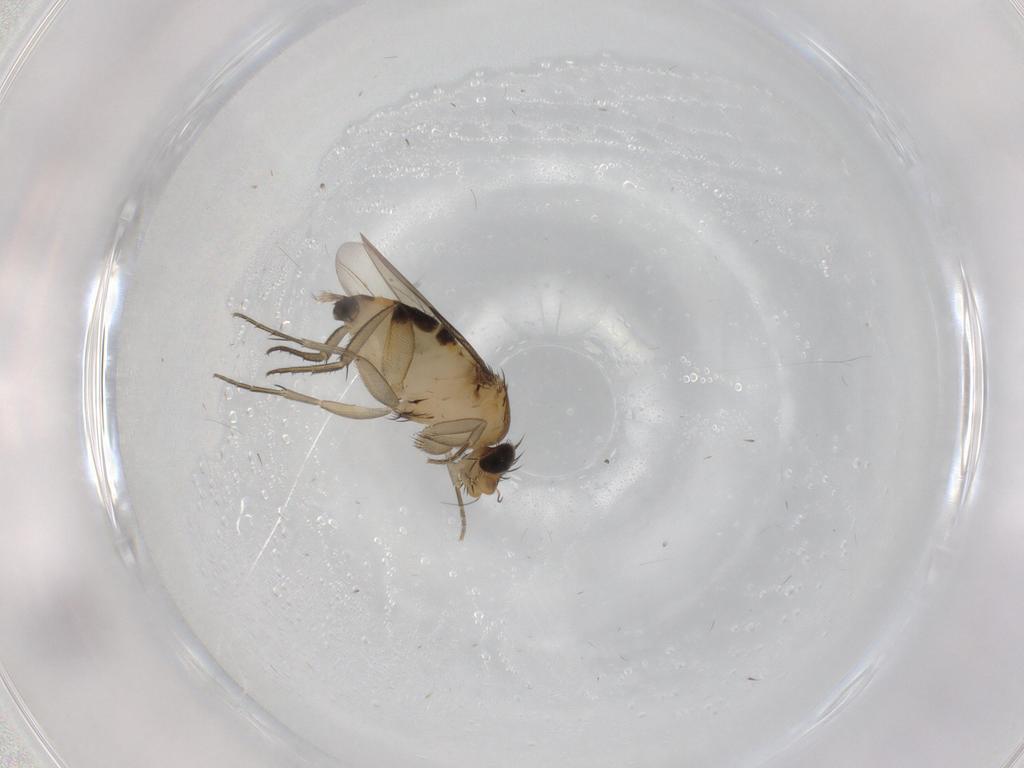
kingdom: Animalia
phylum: Arthropoda
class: Insecta
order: Diptera
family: Phoridae
